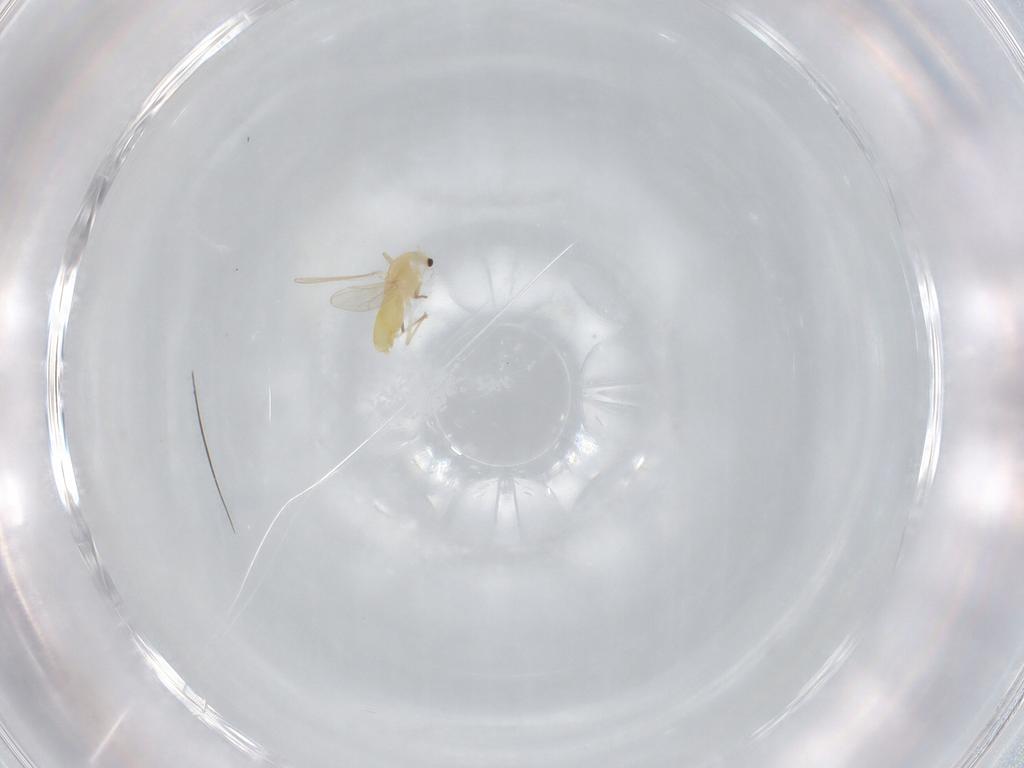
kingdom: Animalia
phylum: Arthropoda
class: Insecta
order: Diptera
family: Chironomidae
